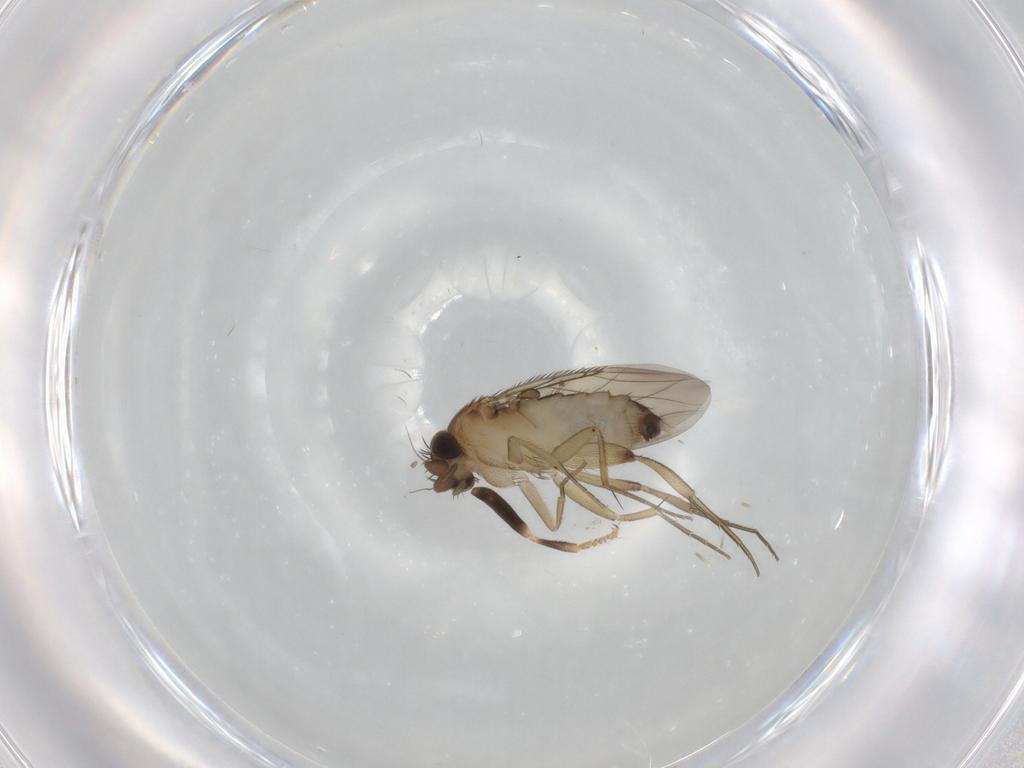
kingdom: Animalia
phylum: Arthropoda
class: Insecta
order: Diptera
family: Phoridae
